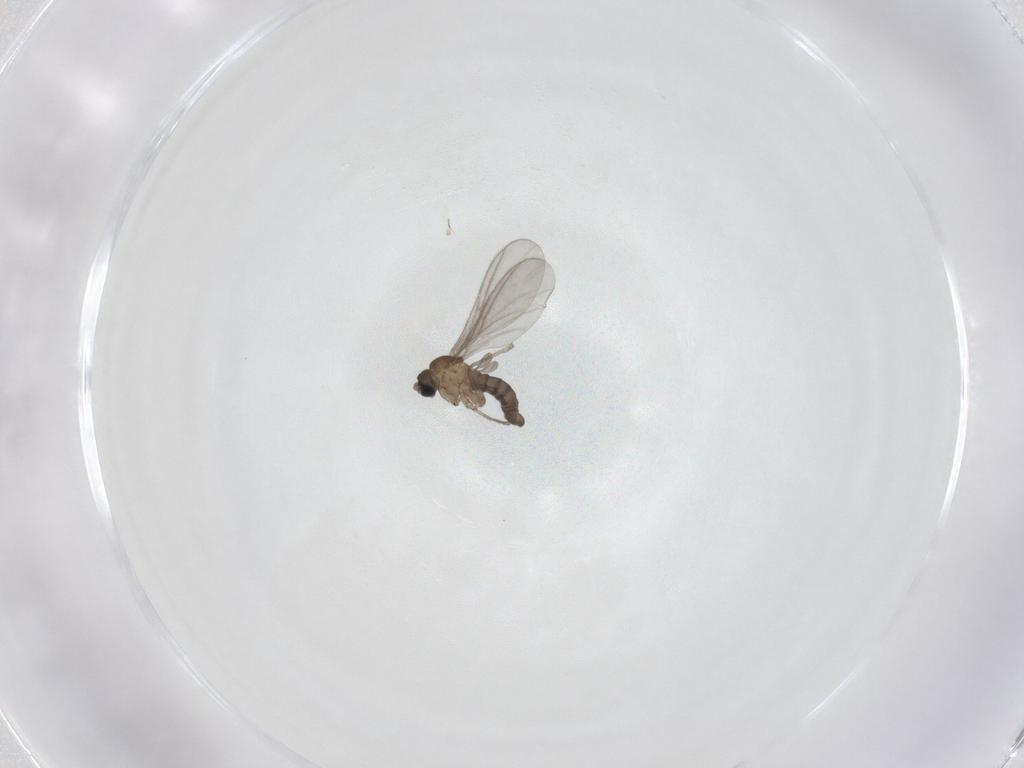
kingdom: Animalia
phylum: Arthropoda
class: Insecta
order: Diptera
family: Sciaridae
